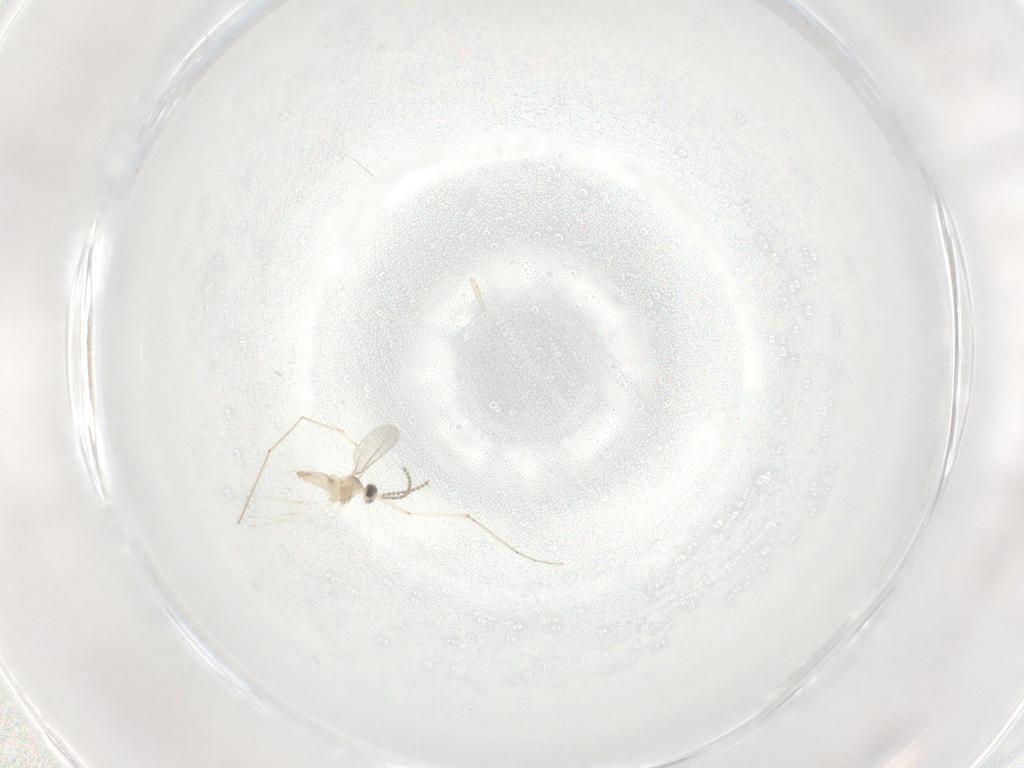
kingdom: Animalia
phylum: Arthropoda
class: Insecta
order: Diptera
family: Cecidomyiidae
